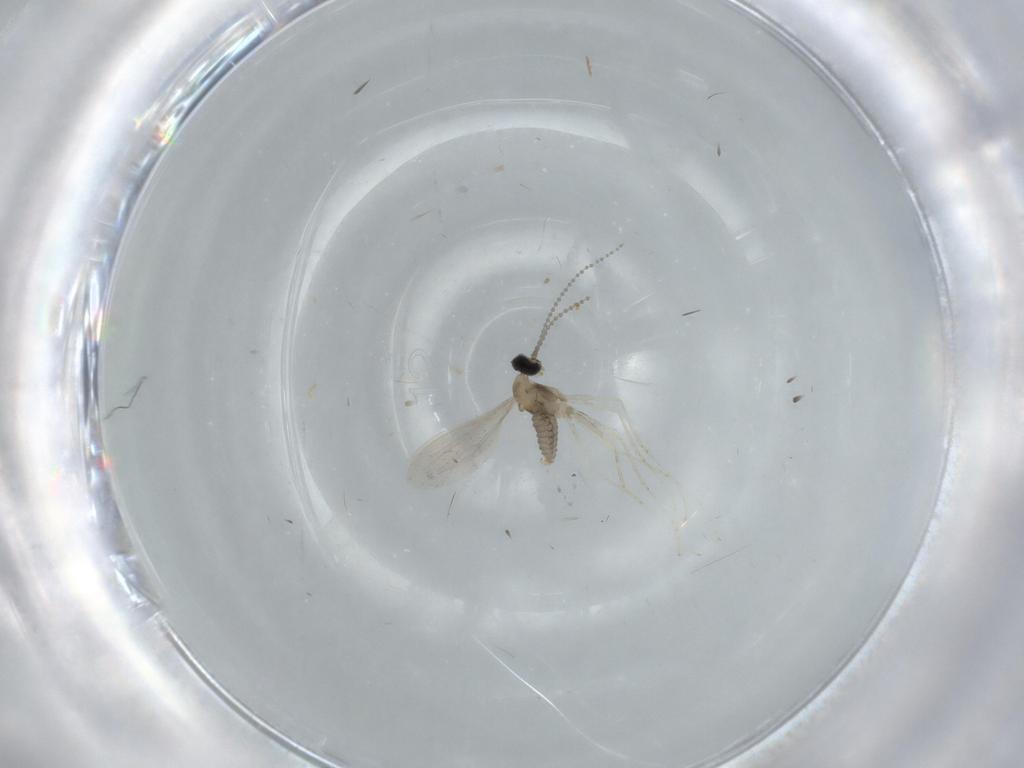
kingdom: Animalia
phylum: Arthropoda
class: Insecta
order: Diptera
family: Cecidomyiidae
